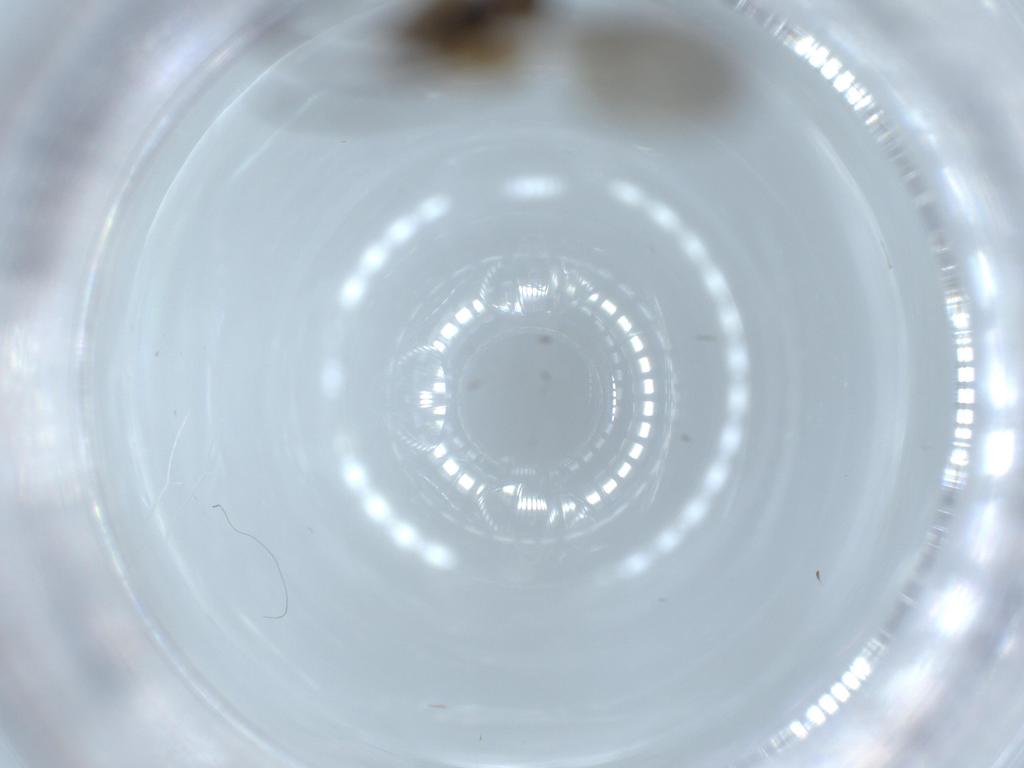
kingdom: Animalia
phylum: Arthropoda
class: Insecta
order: Diptera
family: Sciaridae
